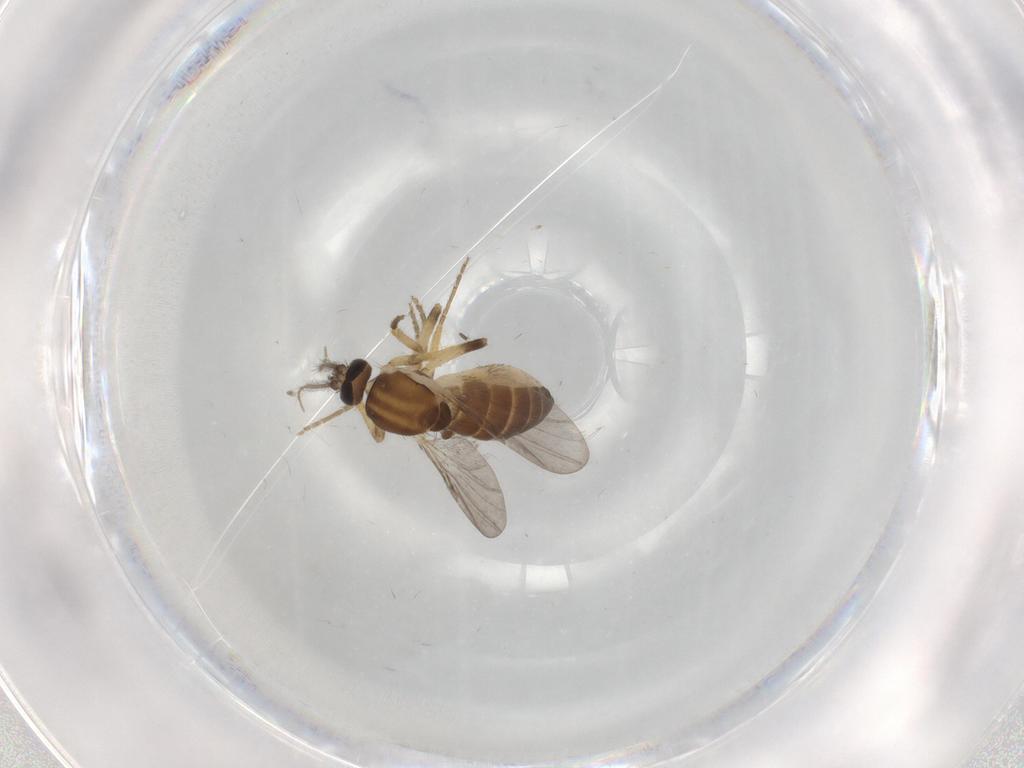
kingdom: Animalia
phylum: Arthropoda
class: Insecta
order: Diptera
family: Ceratopogonidae
